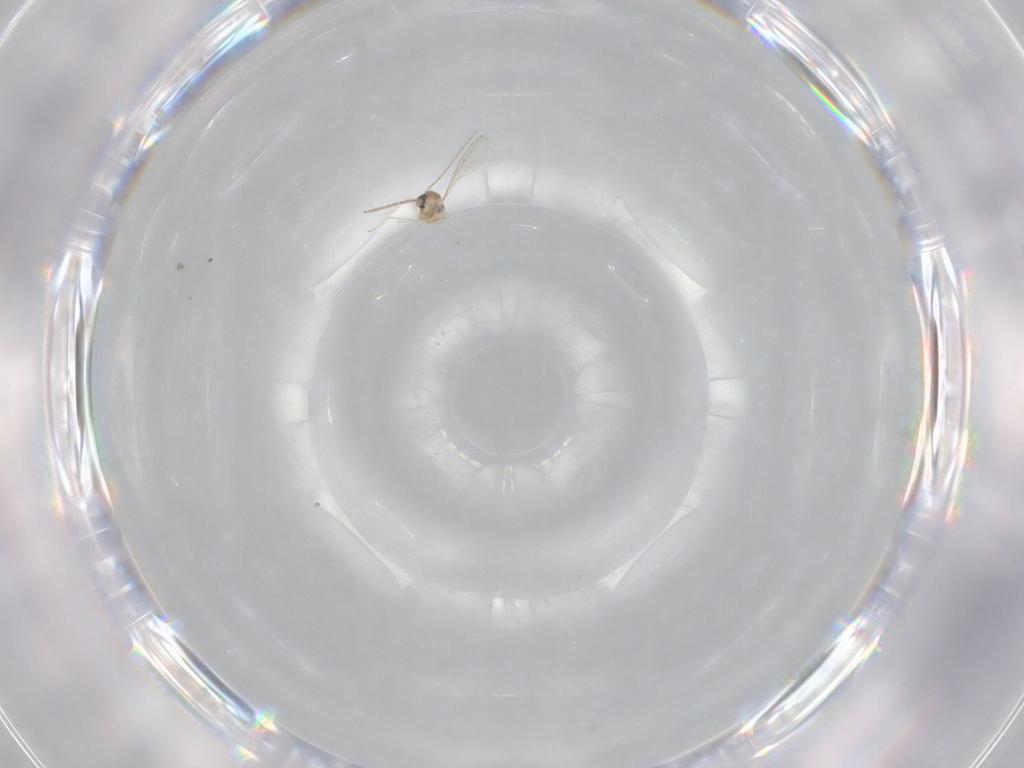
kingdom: Animalia
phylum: Arthropoda
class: Insecta
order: Diptera
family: Cecidomyiidae
